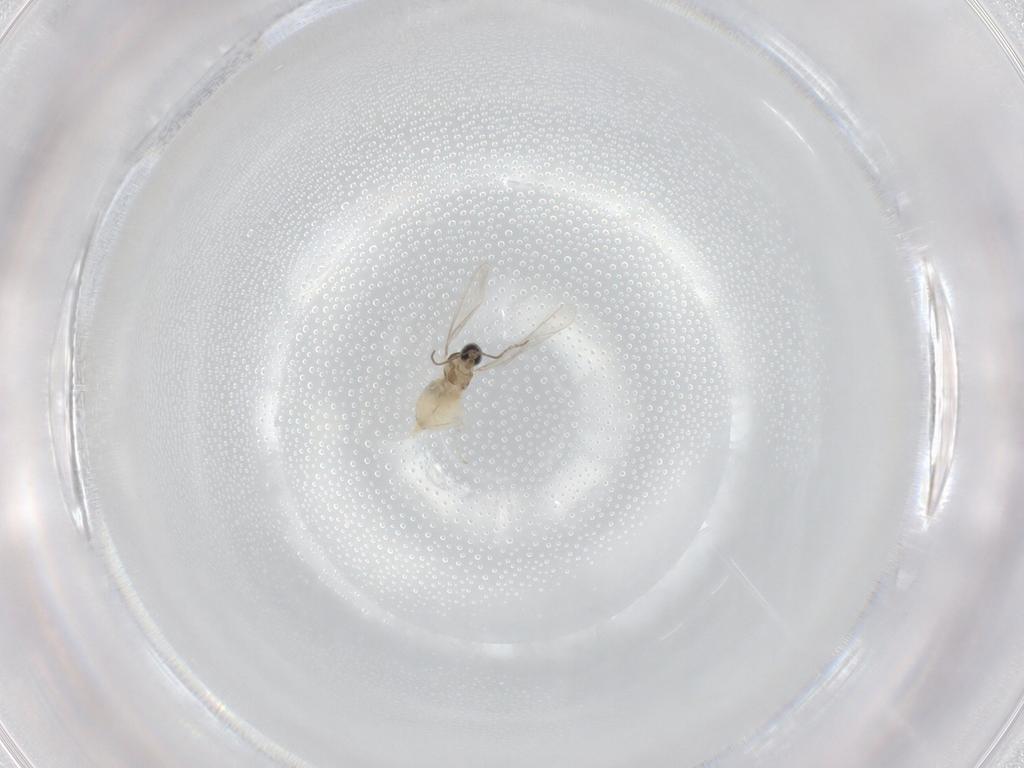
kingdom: Animalia
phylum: Arthropoda
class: Insecta
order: Diptera
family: Cecidomyiidae
